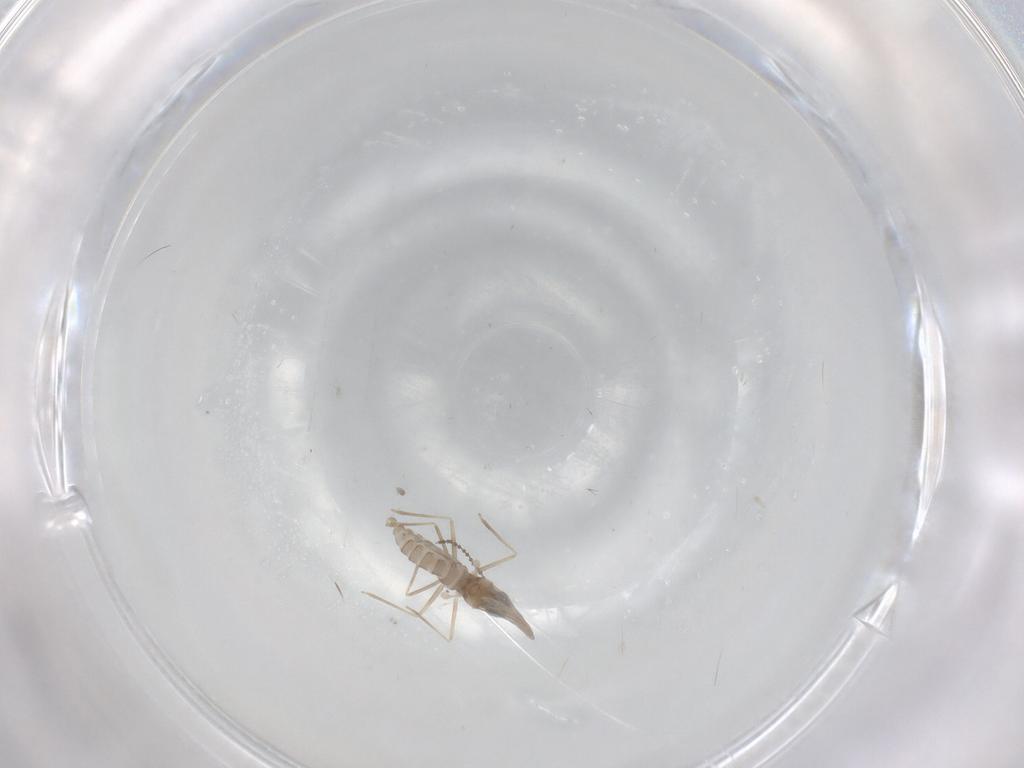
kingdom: Animalia
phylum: Arthropoda
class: Insecta
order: Diptera
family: Cecidomyiidae
